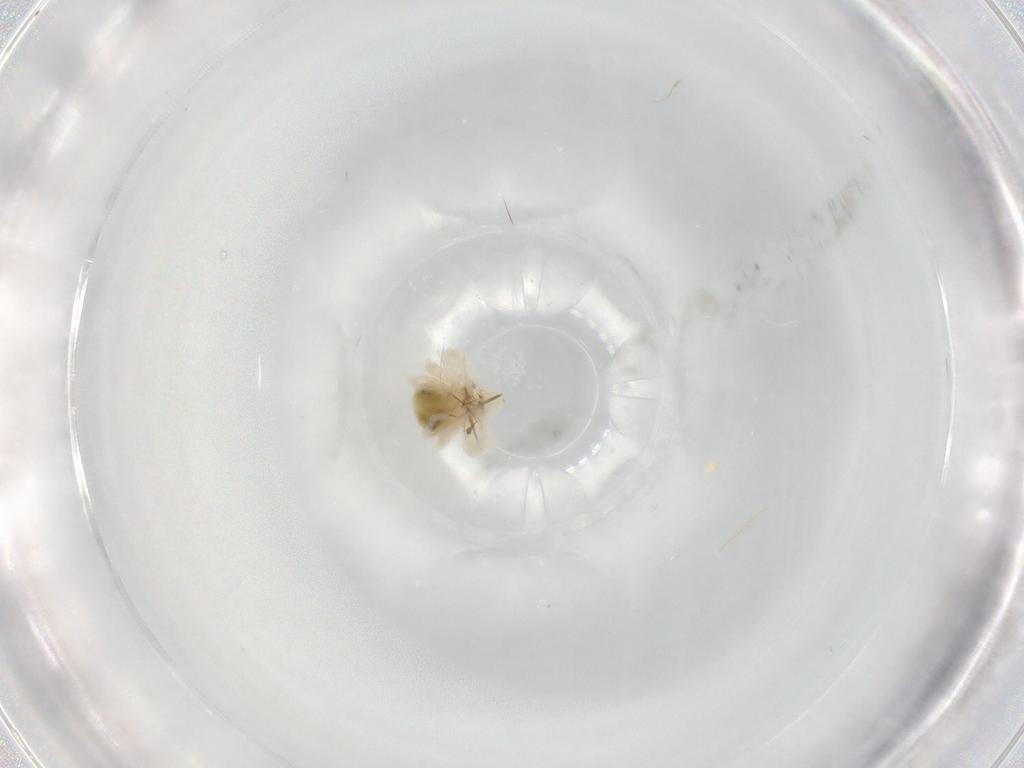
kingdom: Animalia
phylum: Arthropoda
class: Arachnida
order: Trombidiformes
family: Anystidae
